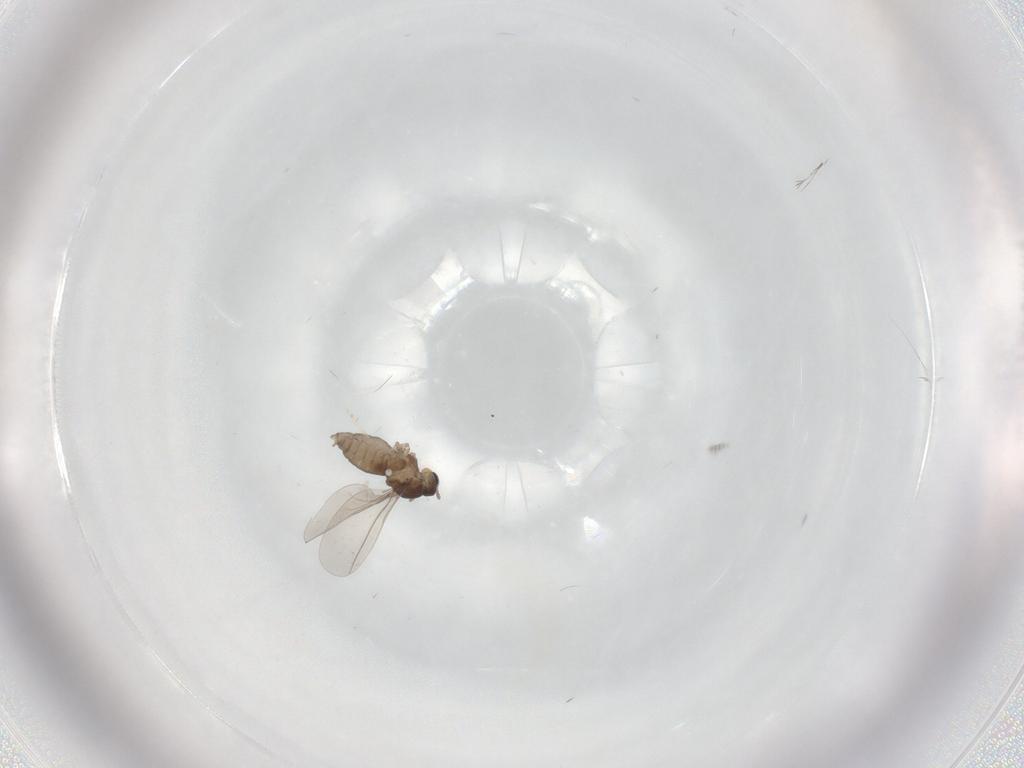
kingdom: Animalia
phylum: Arthropoda
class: Insecta
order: Diptera
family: Cecidomyiidae
